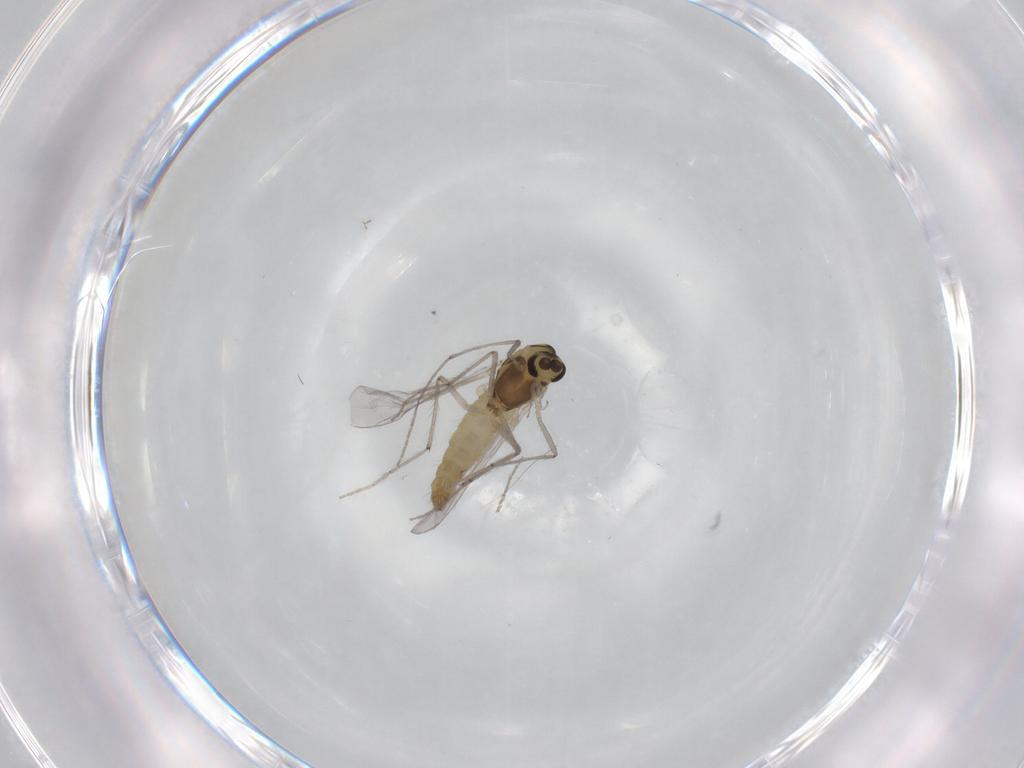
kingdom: Animalia
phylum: Arthropoda
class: Insecta
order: Diptera
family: Chironomidae
